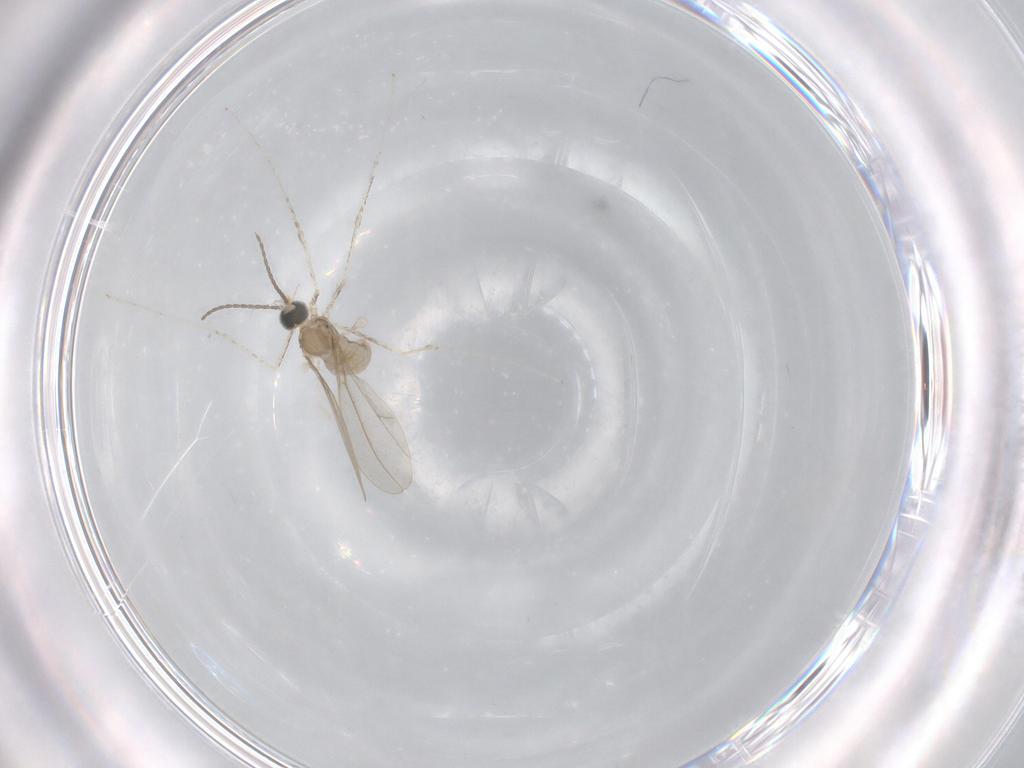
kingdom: Animalia
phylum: Arthropoda
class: Insecta
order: Diptera
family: Cecidomyiidae
